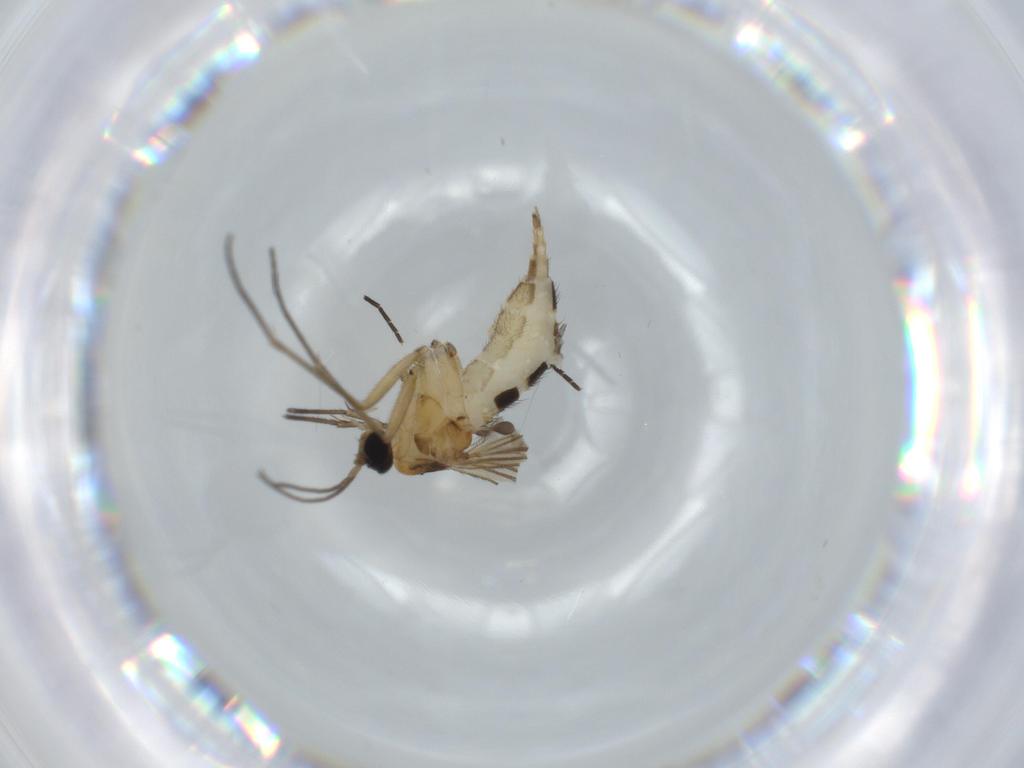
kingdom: Animalia
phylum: Arthropoda
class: Insecta
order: Diptera
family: Sciaridae
